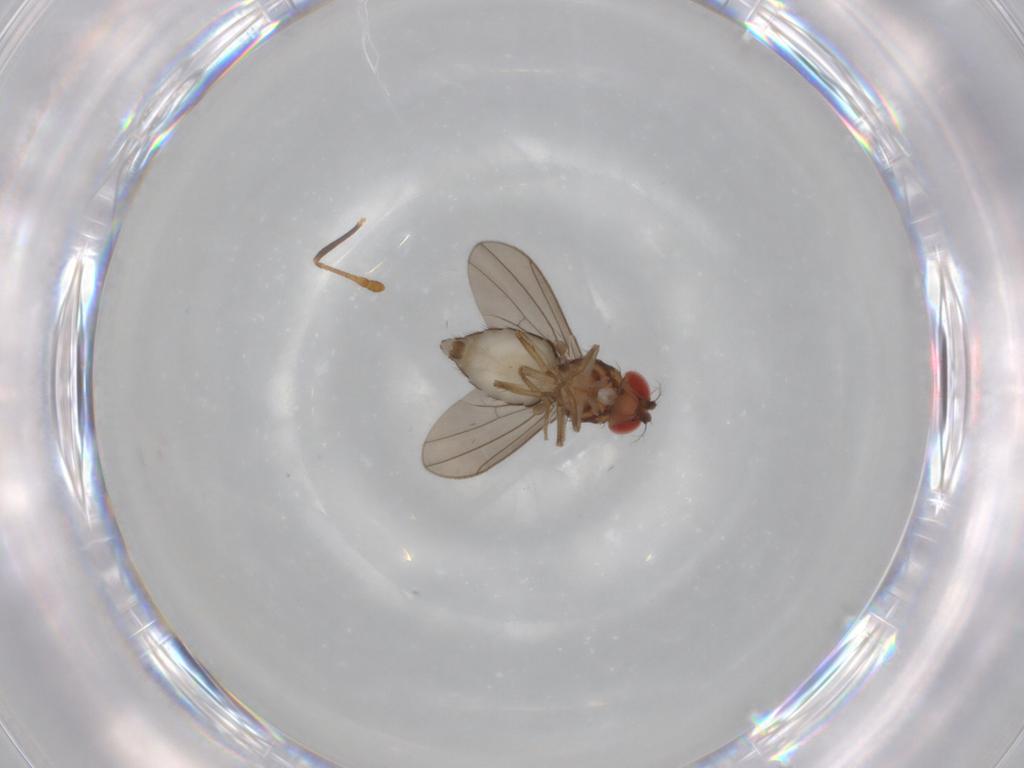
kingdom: Animalia
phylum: Arthropoda
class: Insecta
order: Diptera
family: Drosophilidae
